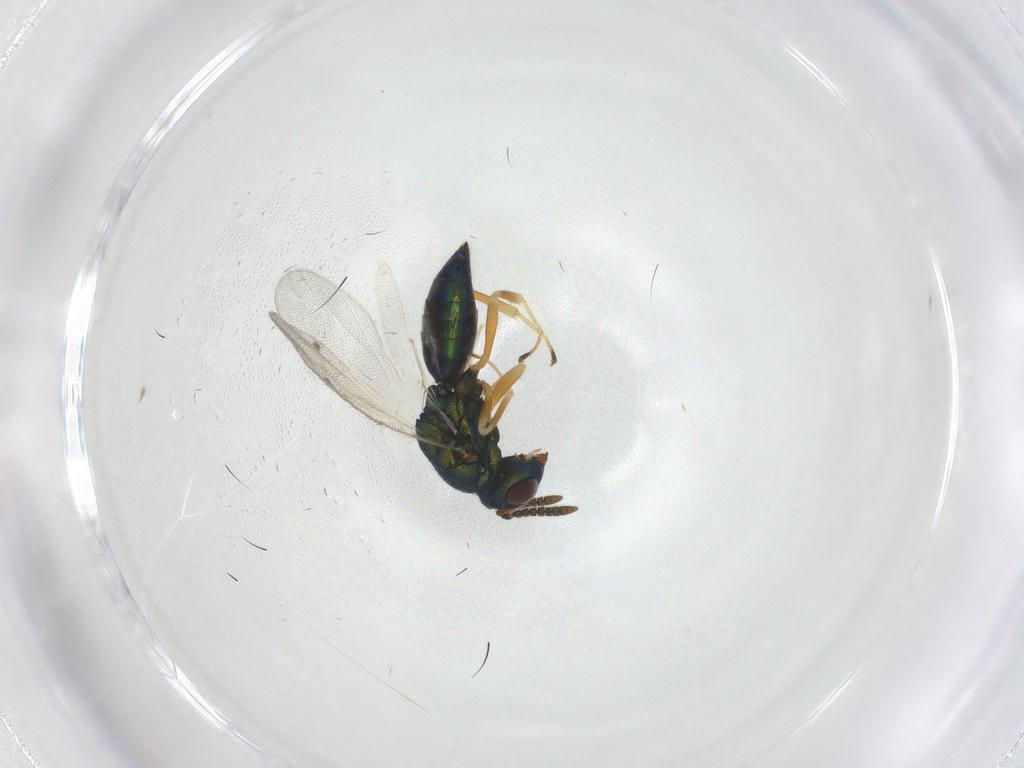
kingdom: Animalia
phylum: Arthropoda
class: Insecta
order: Hymenoptera
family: Pteromalidae
